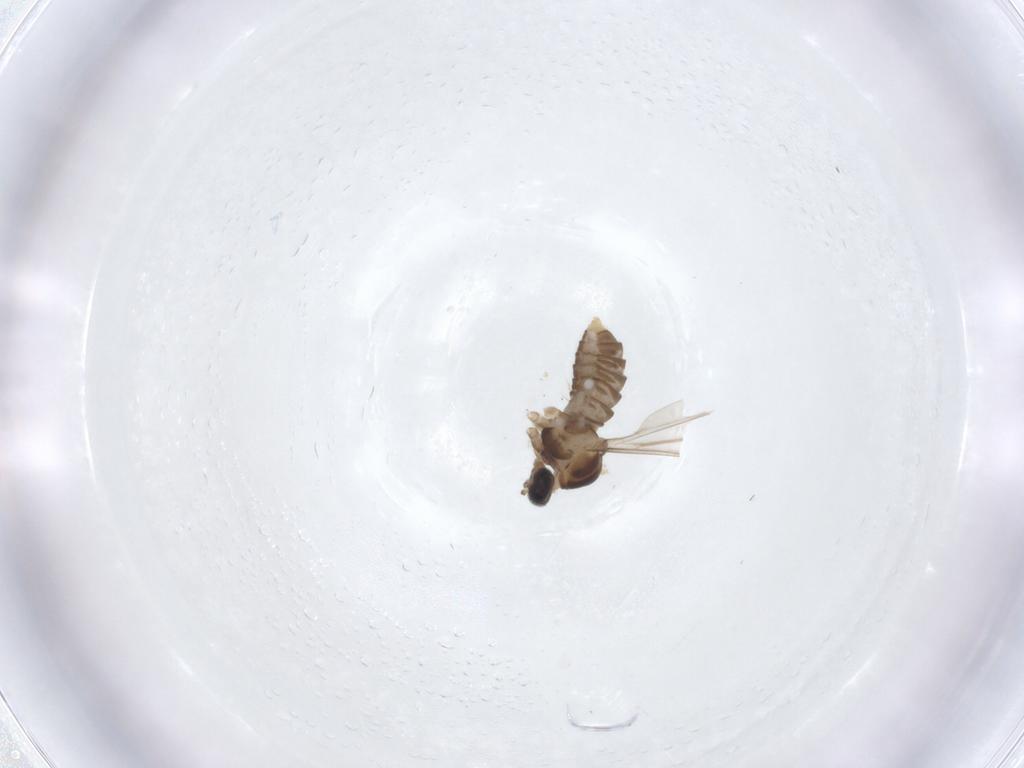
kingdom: Animalia
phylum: Arthropoda
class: Insecta
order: Diptera
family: Cecidomyiidae
